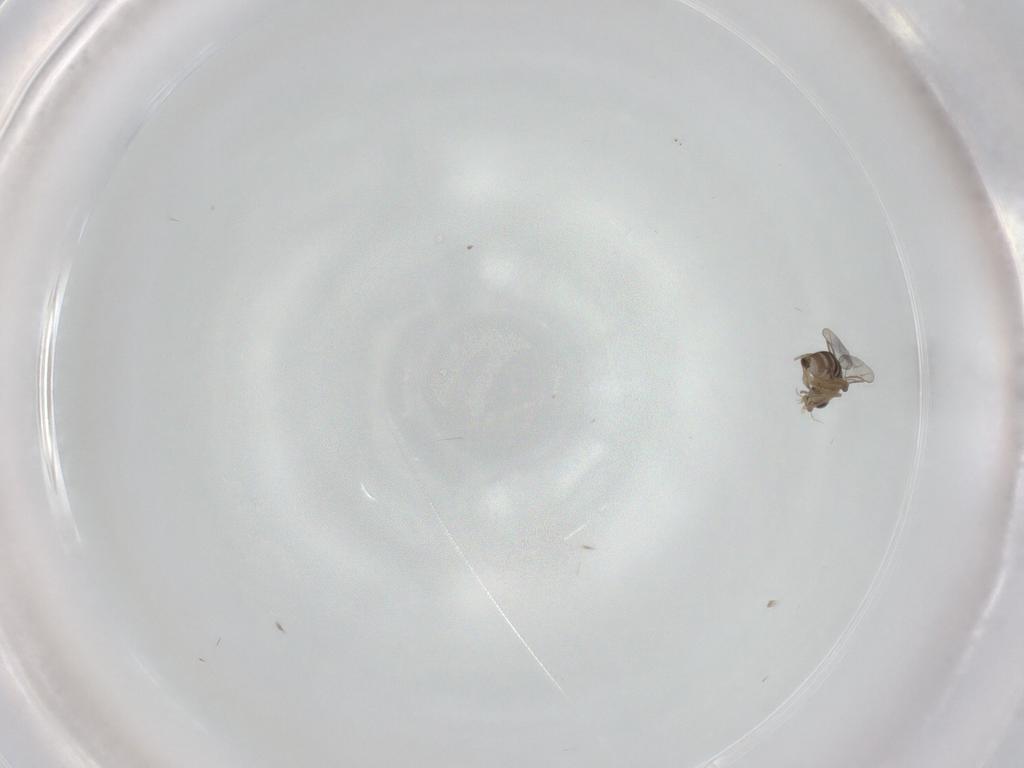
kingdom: Animalia
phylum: Arthropoda
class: Insecta
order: Diptera
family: Phoridae
